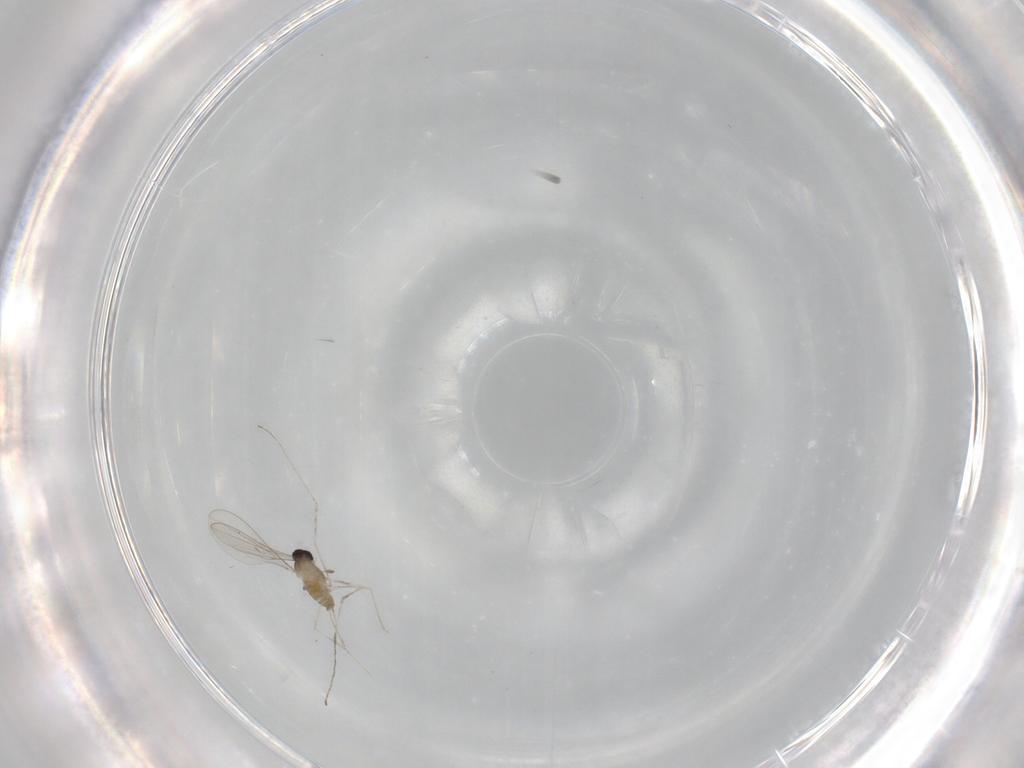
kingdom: Animalia
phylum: Arthropoda
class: Insecta
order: Diptera
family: Cecidomyiidae
